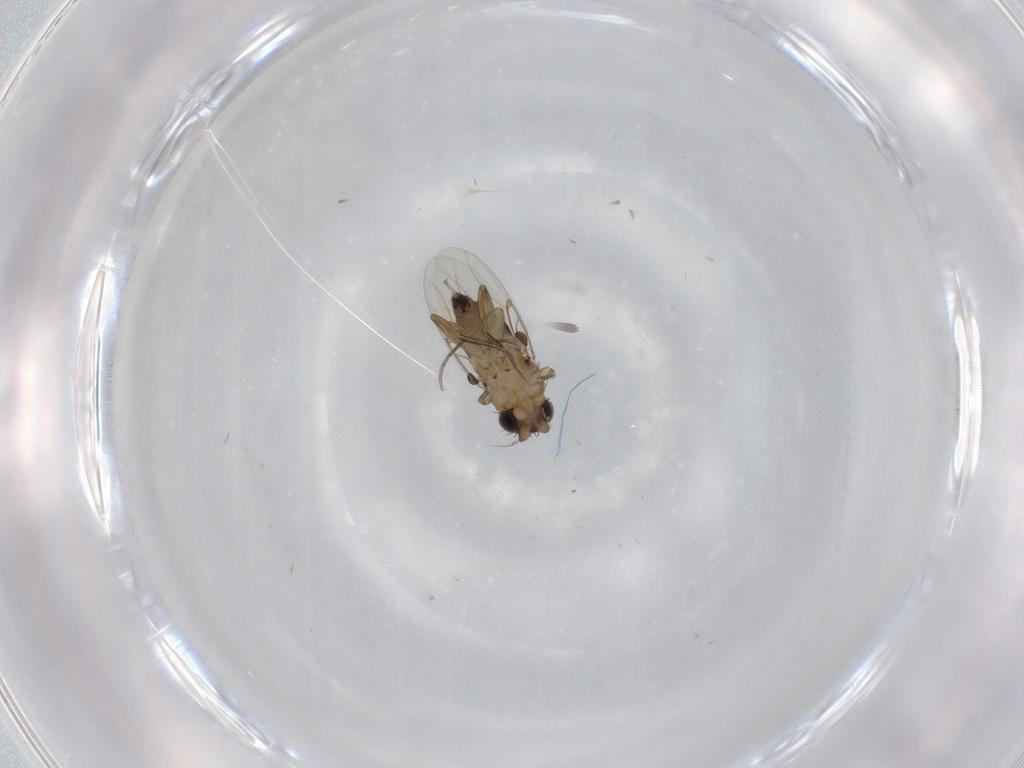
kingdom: Animalia
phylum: Arthropoda
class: Insecta
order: Diptera
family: Phoridae
